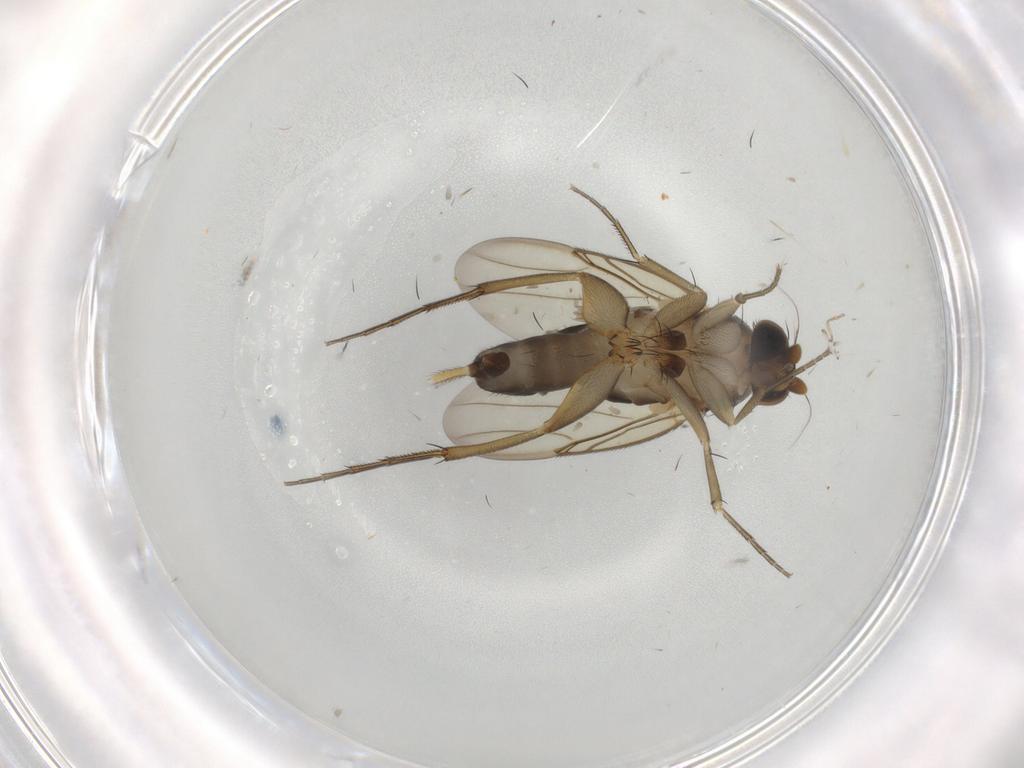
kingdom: Animalia
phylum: Arthropoda
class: Insecta
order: Diptera
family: Phoridae
